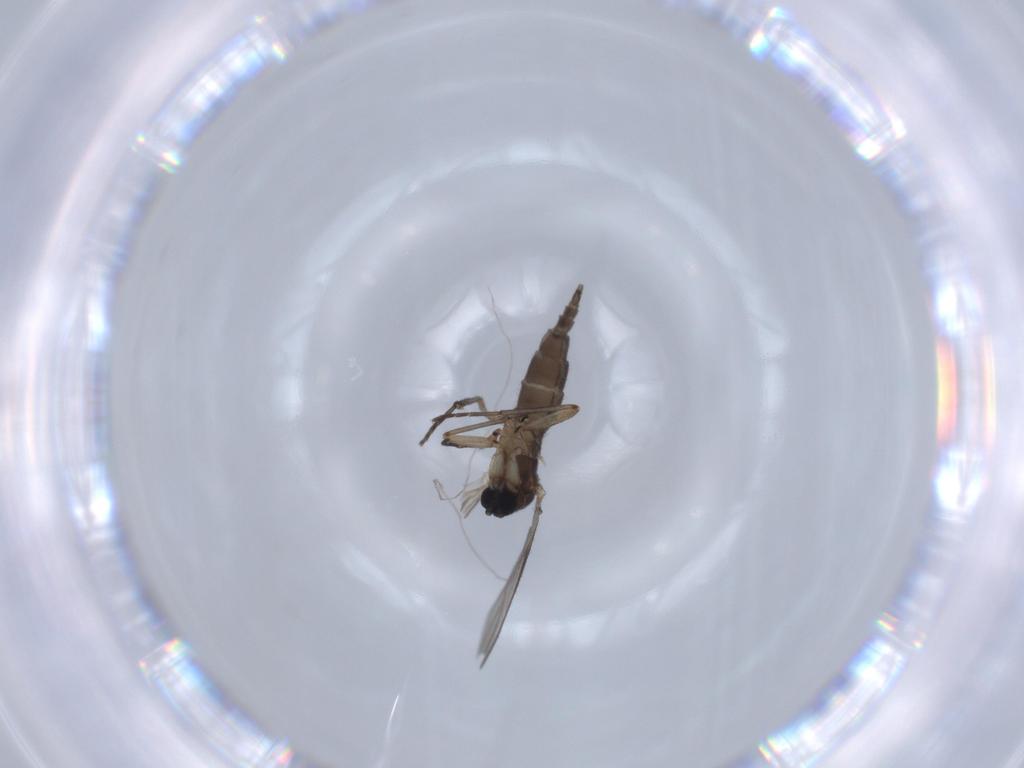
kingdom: Animalia
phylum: Arthropoda
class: Insecta
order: Diptera
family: Sciaridae
